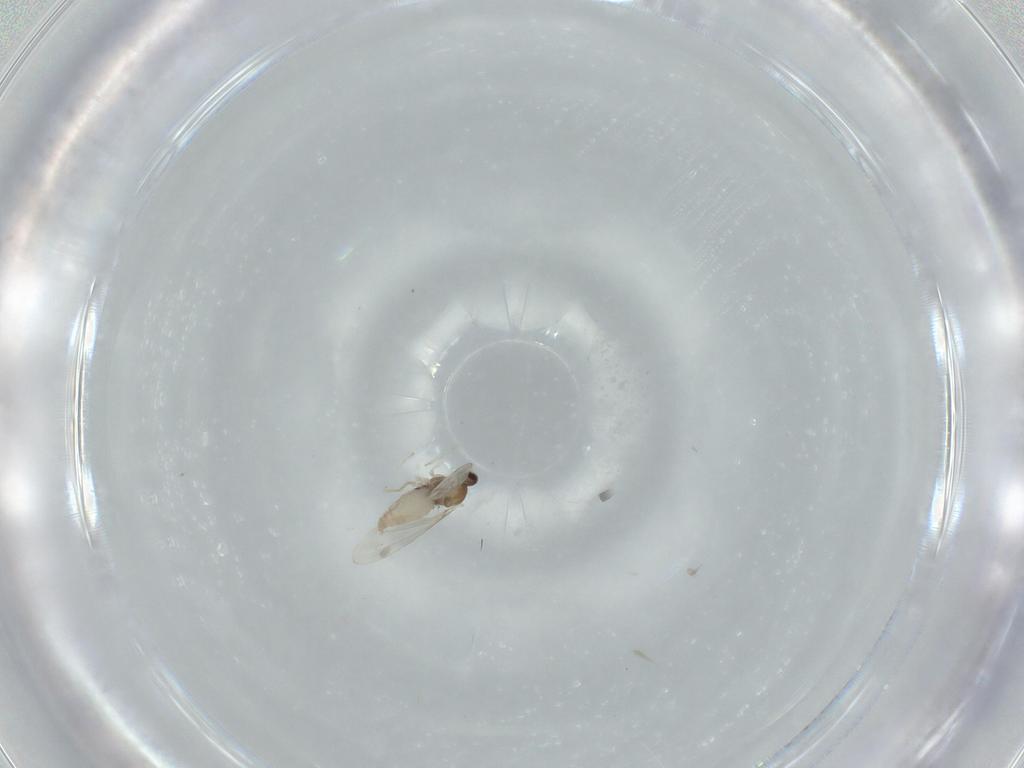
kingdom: Animalia
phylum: Arthropoda
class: Insecta
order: Diptera
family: Cecidomyiidae
